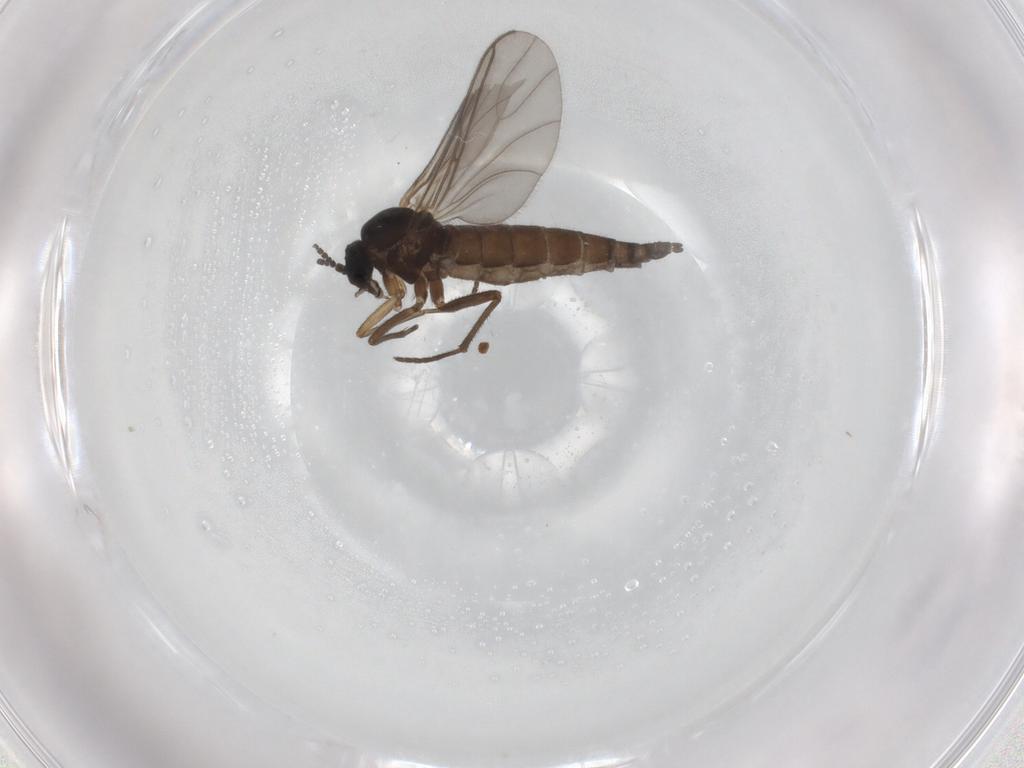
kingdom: Animalia
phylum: Arthropoda
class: Insecta
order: Diptera
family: Sciaridae
